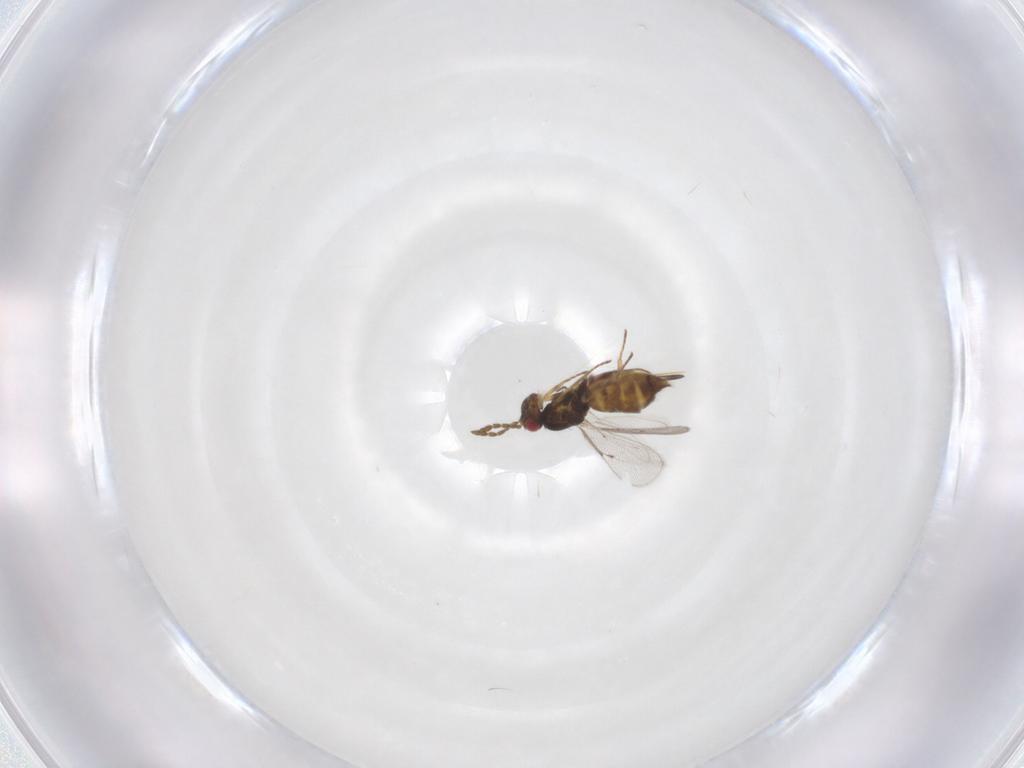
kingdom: Animalia
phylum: Arthropoda
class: Insecta
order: Hymenoptera
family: Eulophidae
